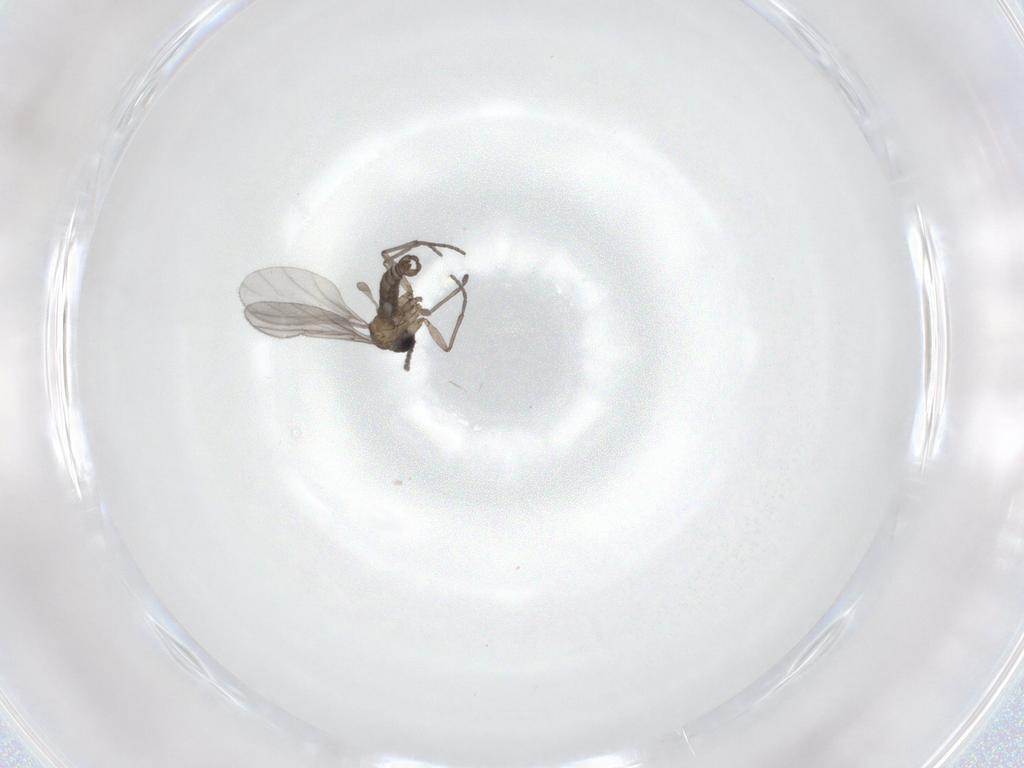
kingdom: Animalia
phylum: Arthropoda
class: Insecta
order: Diptera
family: Sciaridae
